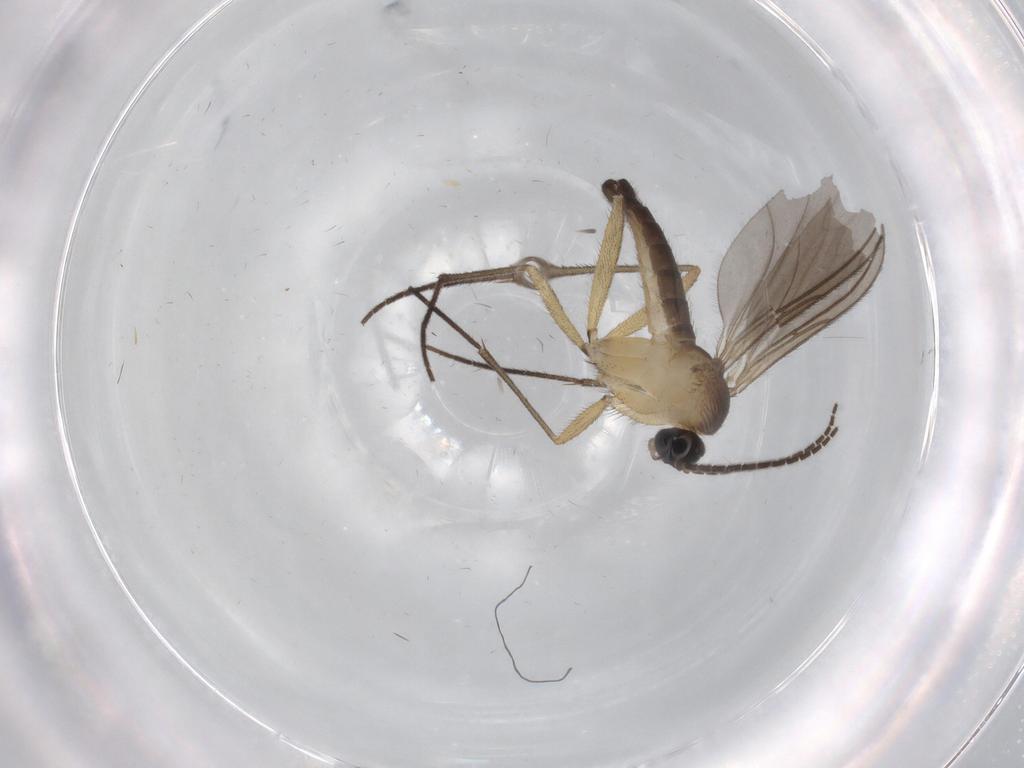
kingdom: Animalia
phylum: Arthropoda
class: Insecta
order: Diptera
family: Sciaridae
